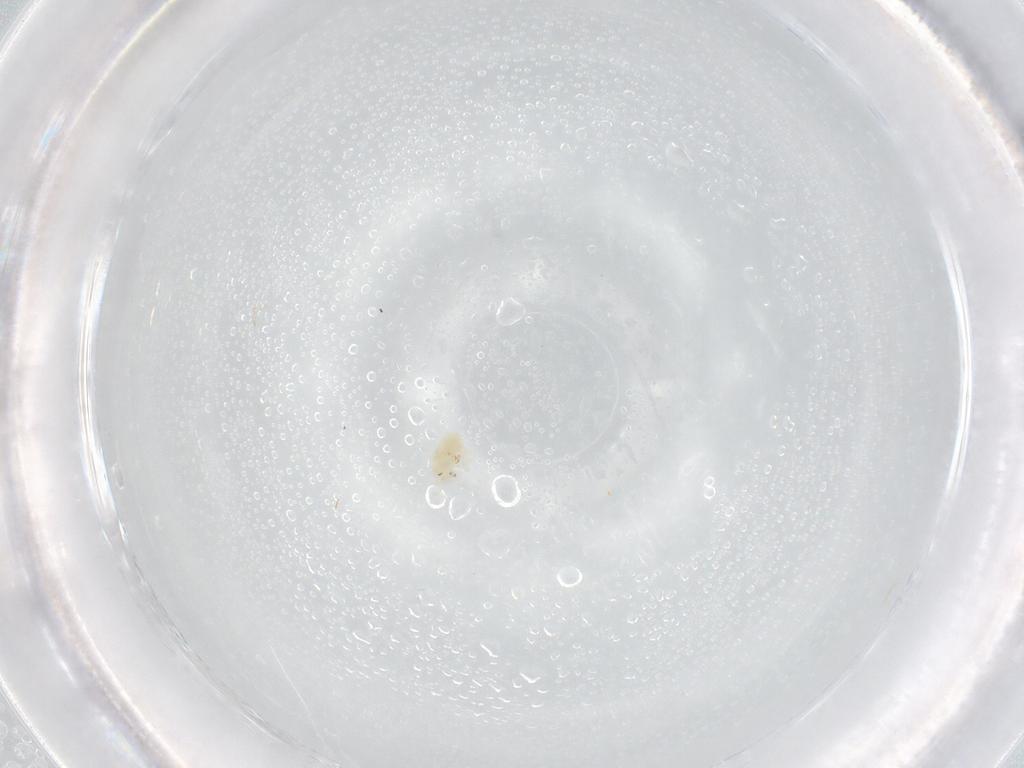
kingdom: Animalia
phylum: Arthropoda
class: Arachnida
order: Trombidiformes
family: Eupodidae
